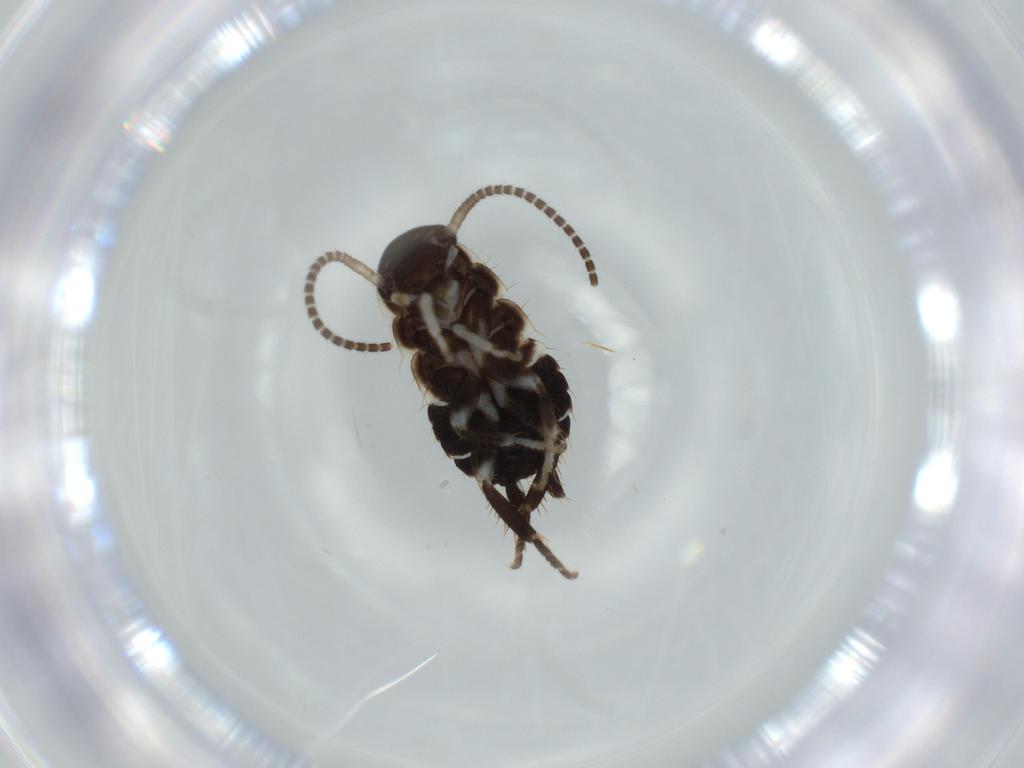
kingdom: Animalia
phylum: Arthropoda
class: Insecta
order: Blattodea
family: Ectobiidae
